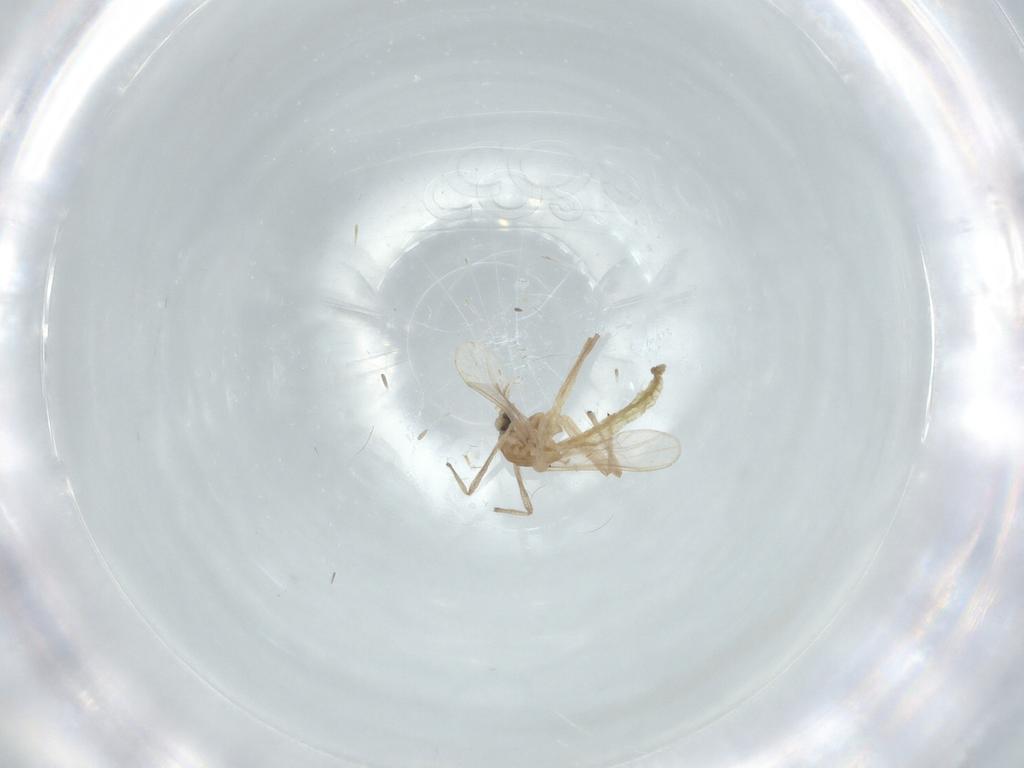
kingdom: Animalia
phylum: Arthropoda
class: Insecta
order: Diptera
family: Chironomidae
